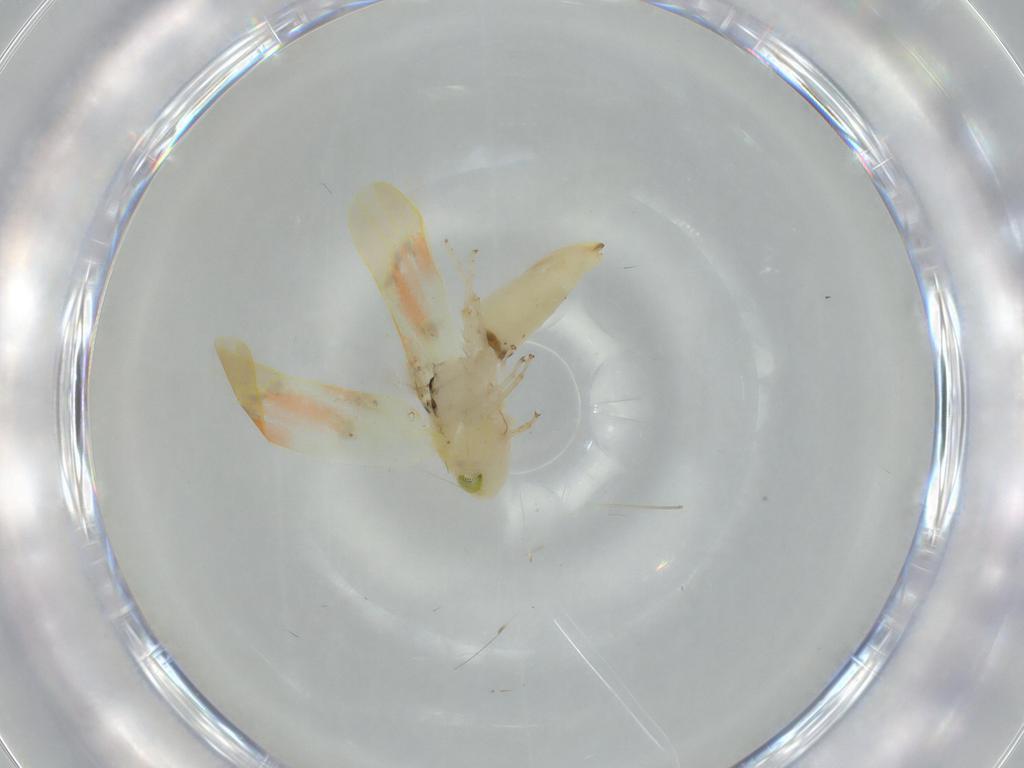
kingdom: Animalia
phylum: Arthropoda
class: Insecta
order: Hemiptera
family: Cicadellidae
